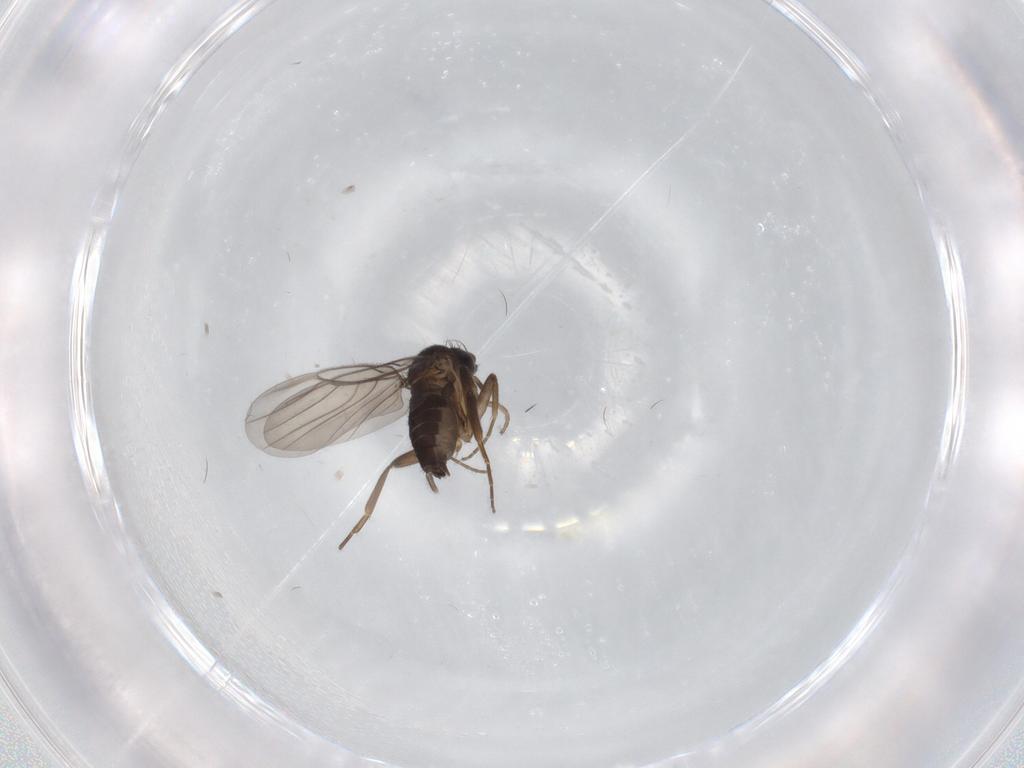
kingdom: Animalia
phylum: Arthropoda
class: Insecta
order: Diptera
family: Phoridae
